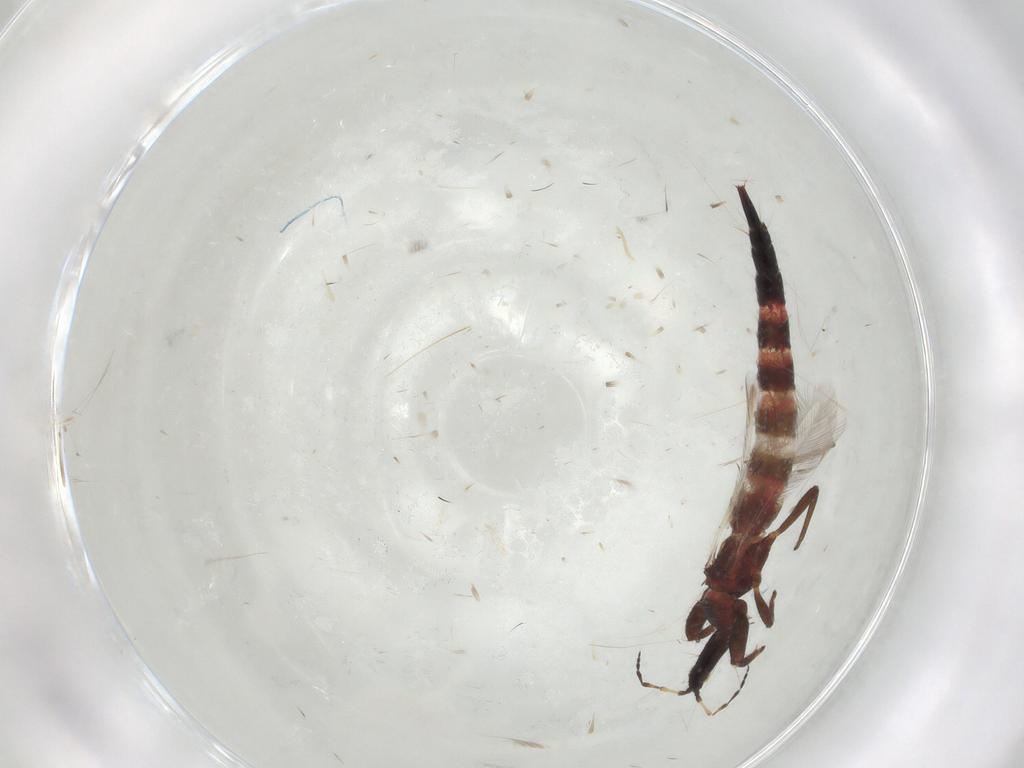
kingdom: Animalia
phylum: Arthropoda
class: Insecta
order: Thysanoptera
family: Phlaeothripidae
